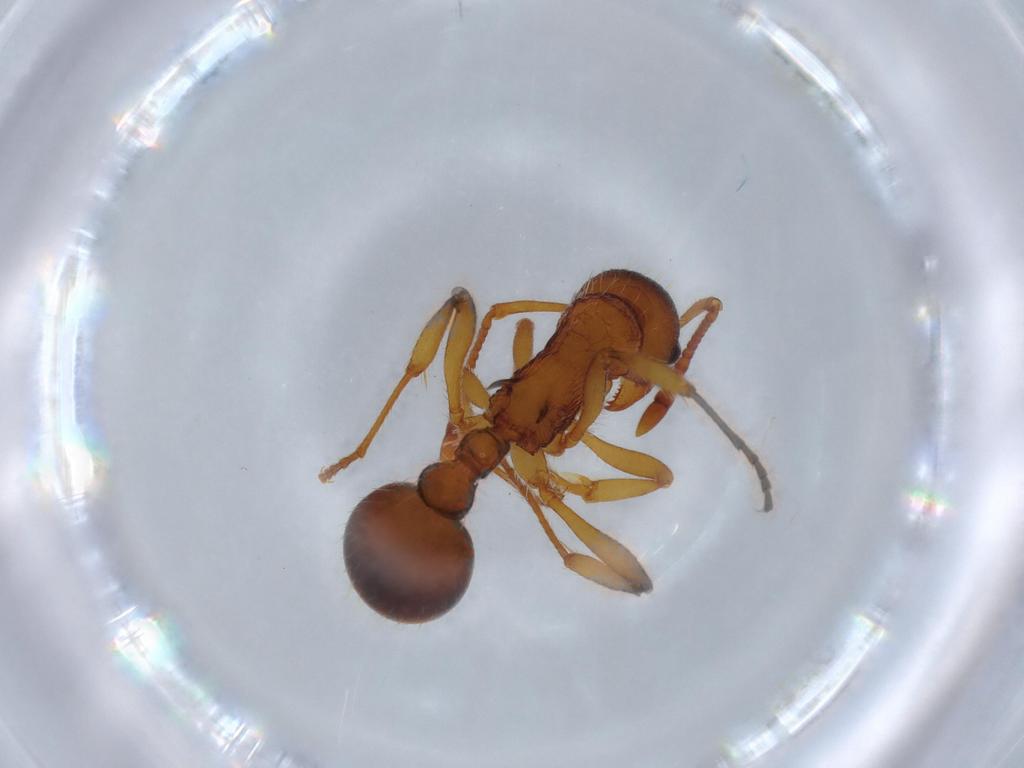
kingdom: Animalia
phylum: Arthropoda
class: Insecta
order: Hymenoptera
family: Formicidae
